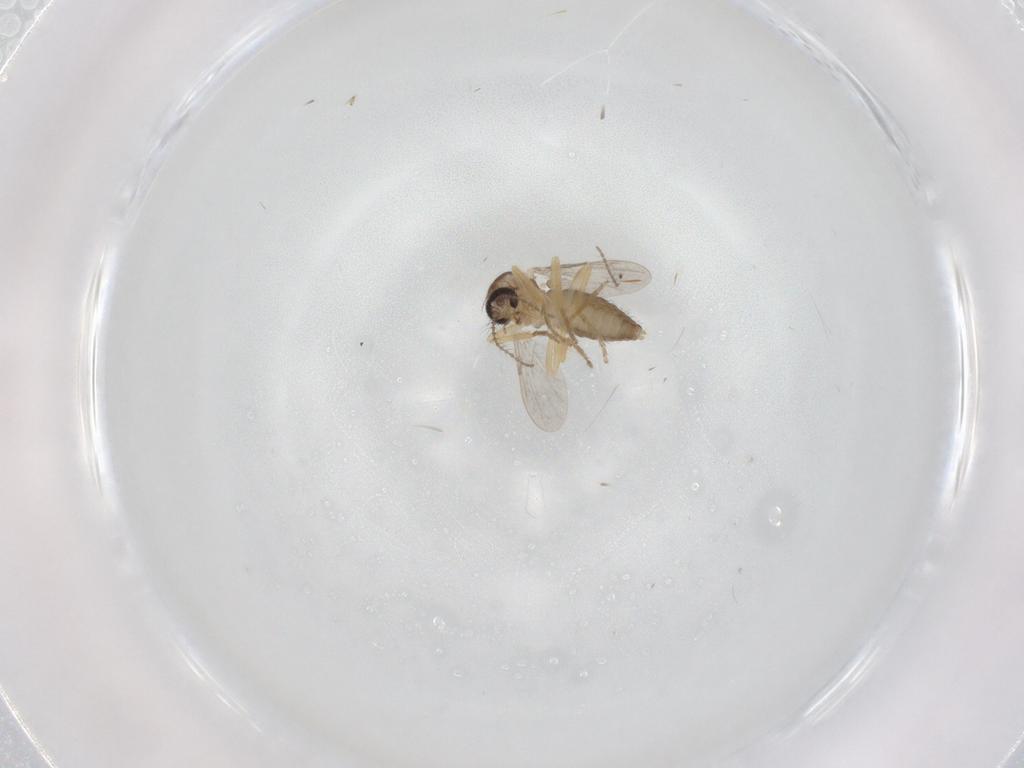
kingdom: Animalia
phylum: Arthropoda
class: Insecta
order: Diptera
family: Ceratopogonidae
